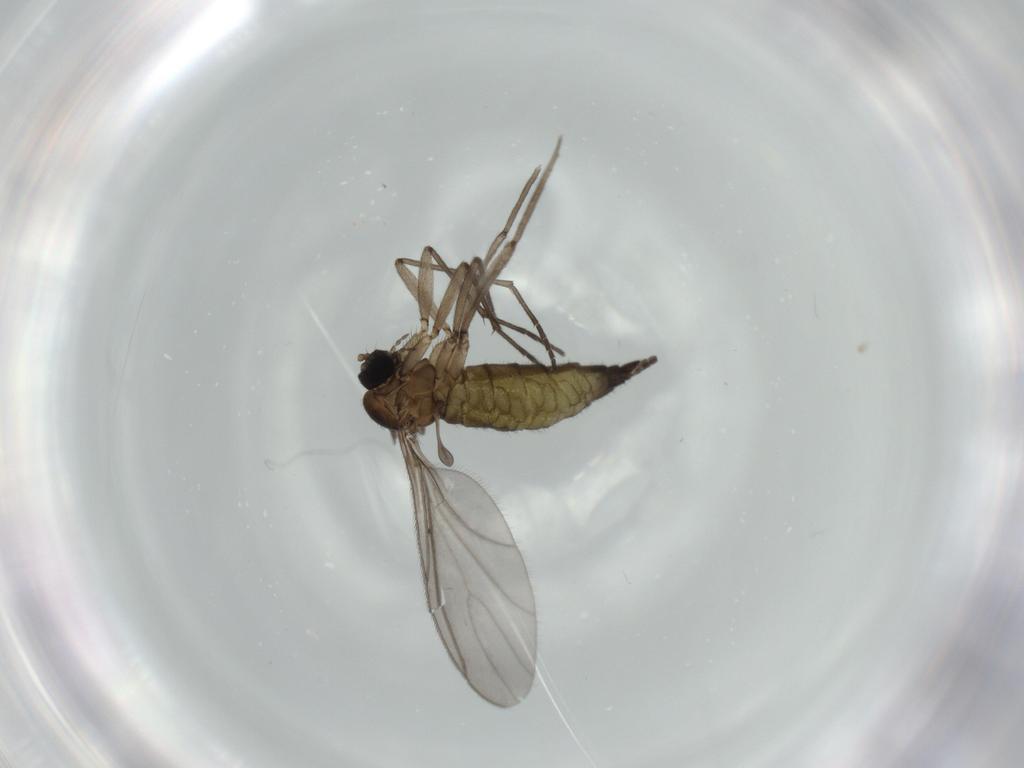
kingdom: Animalia
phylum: Arthropoda
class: Insecta
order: Diptera
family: Sciaridae
